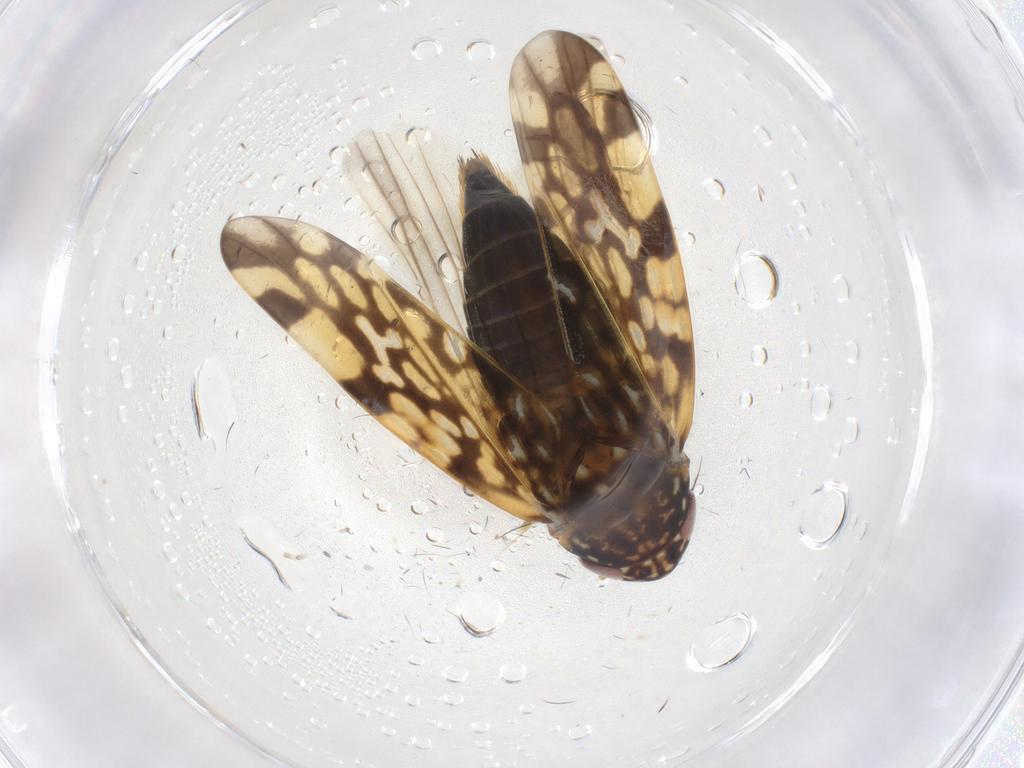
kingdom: Animalia
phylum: Arthropoda
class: Insecta
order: Hemiptera
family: Cicadellidae
